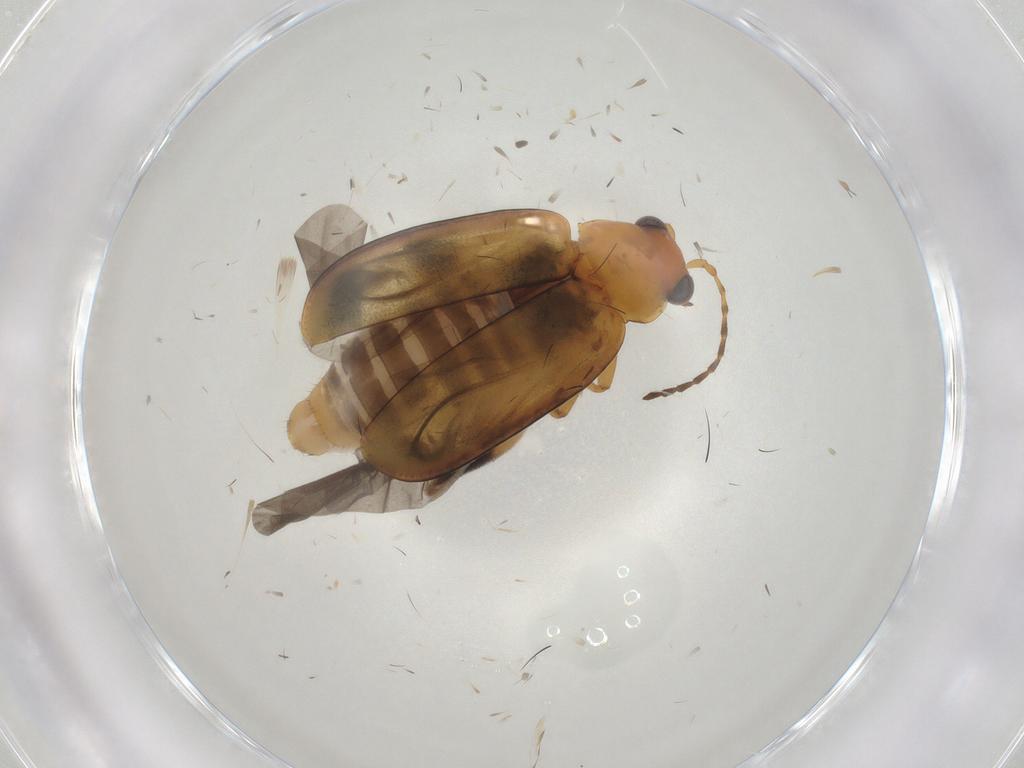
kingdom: Animalia
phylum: Arthropoda
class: Insecta
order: Coleoptera
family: Chrysomelidae
